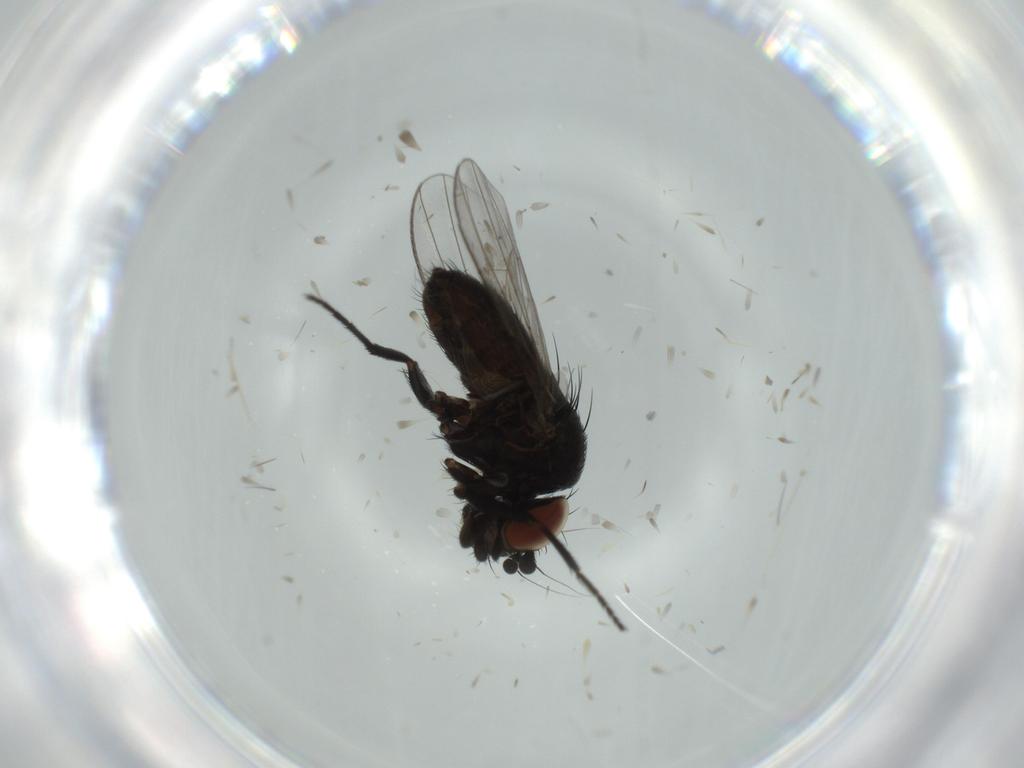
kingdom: Animalia
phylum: Arthropoda
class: Insecta
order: Diptera
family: Milichiidae
